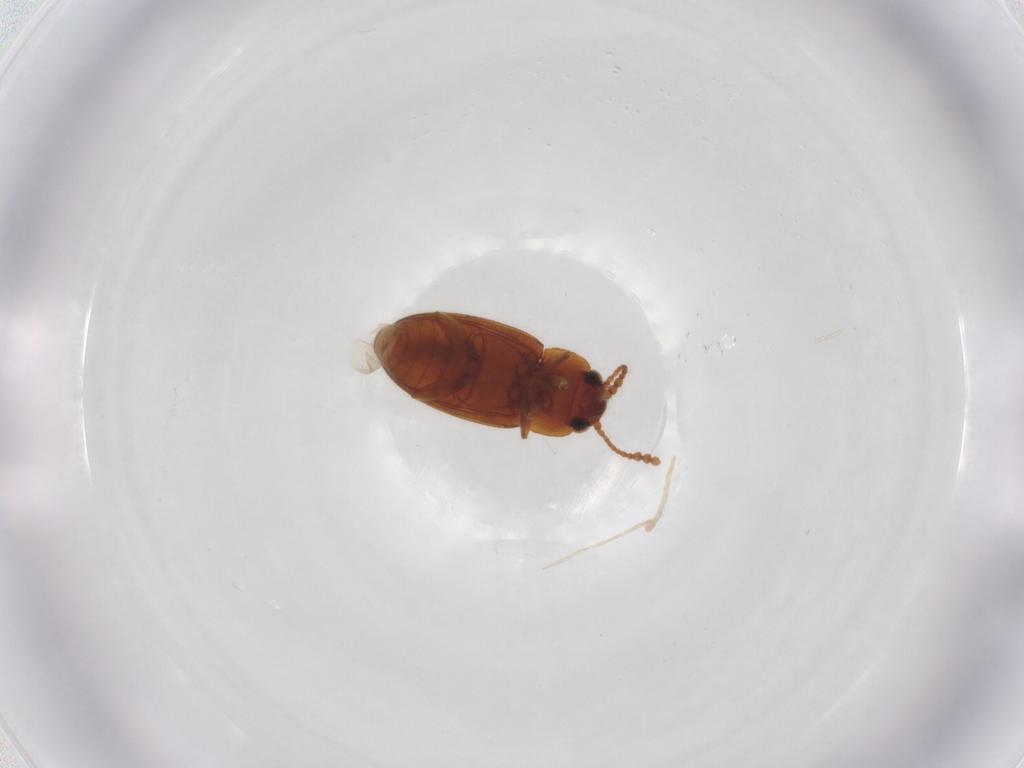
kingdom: Animalia
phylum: Arthropoda
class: Insecta
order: Coleoptera
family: Erotylidae
